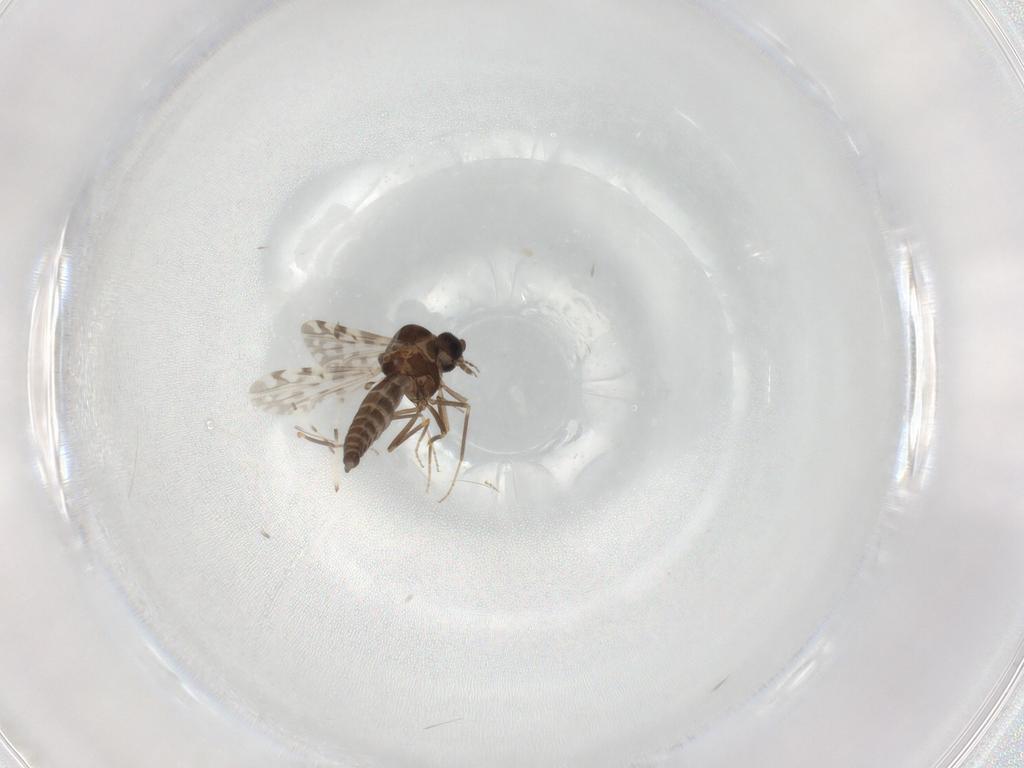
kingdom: Animalia
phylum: Arthropoda
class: Insecta
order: Diptera
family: Ceratopogonidae
